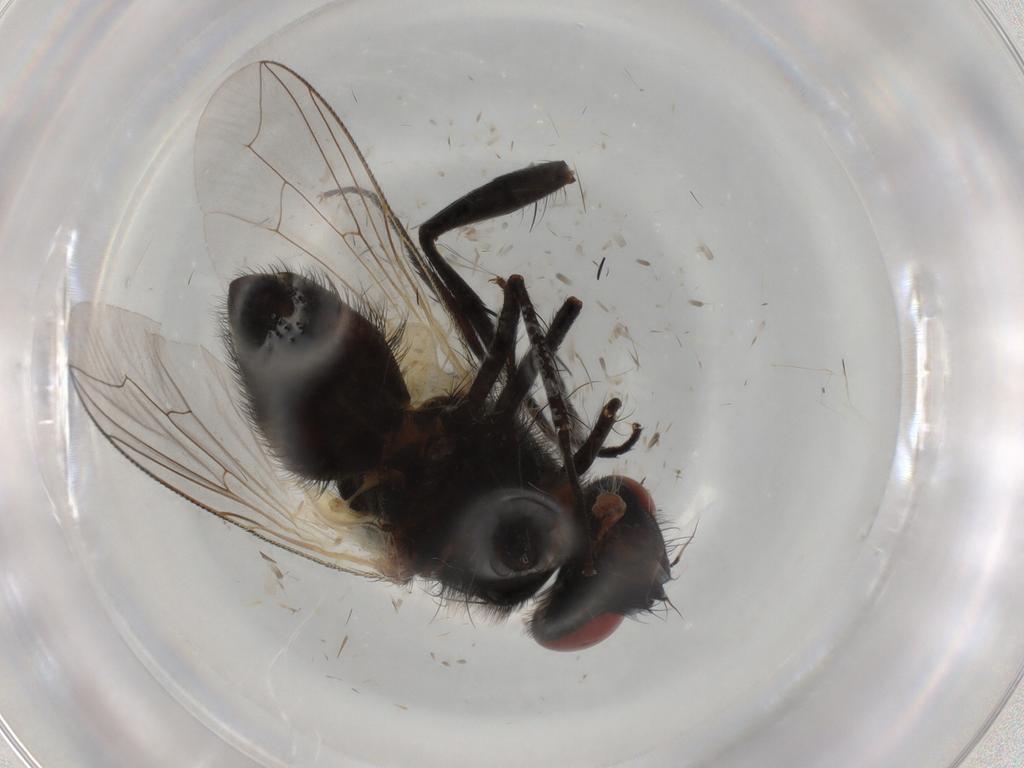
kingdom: Animalia
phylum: Arthropoda
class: Insecta
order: Diptera
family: Sarcophagidae
